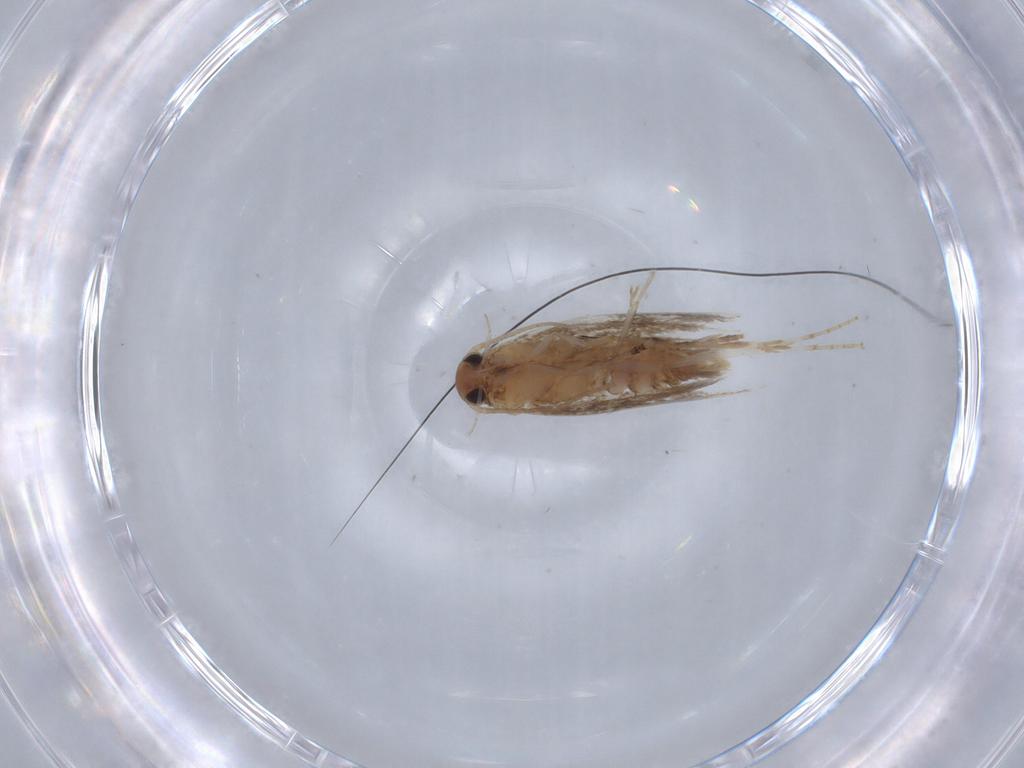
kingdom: Animalia
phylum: Arthropoda
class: Insecta
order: Lepidoptera
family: Elachistidae
